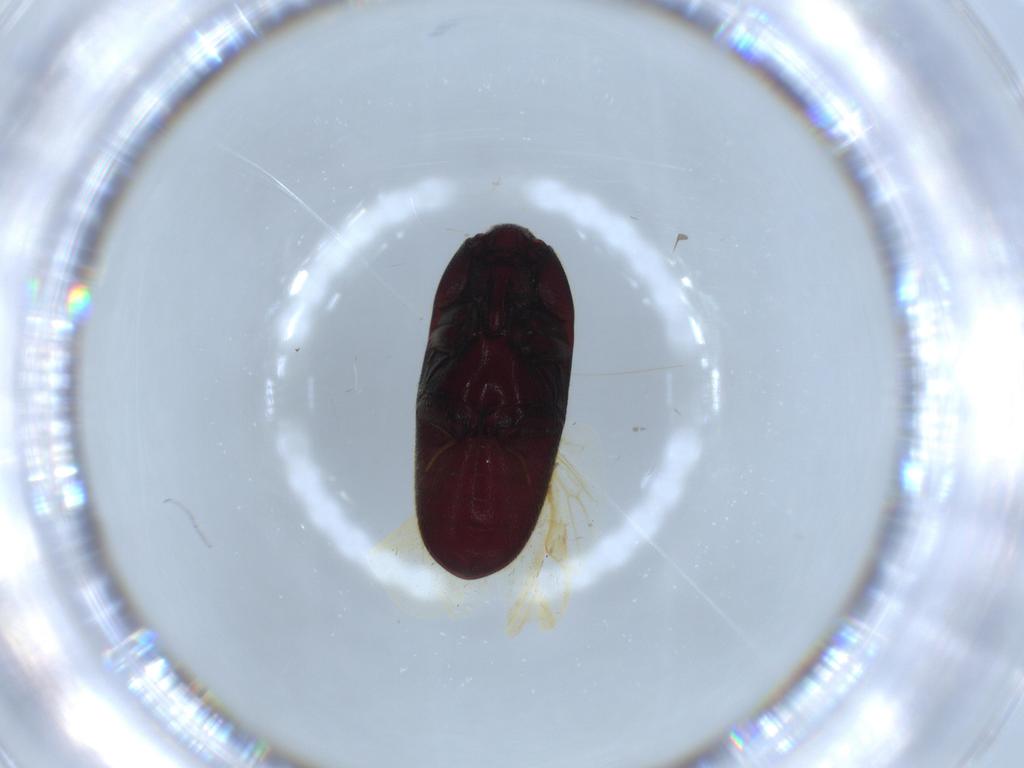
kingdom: Animalia
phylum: Arthropoda
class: Insecta
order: Coleoptera
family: Throscidae
